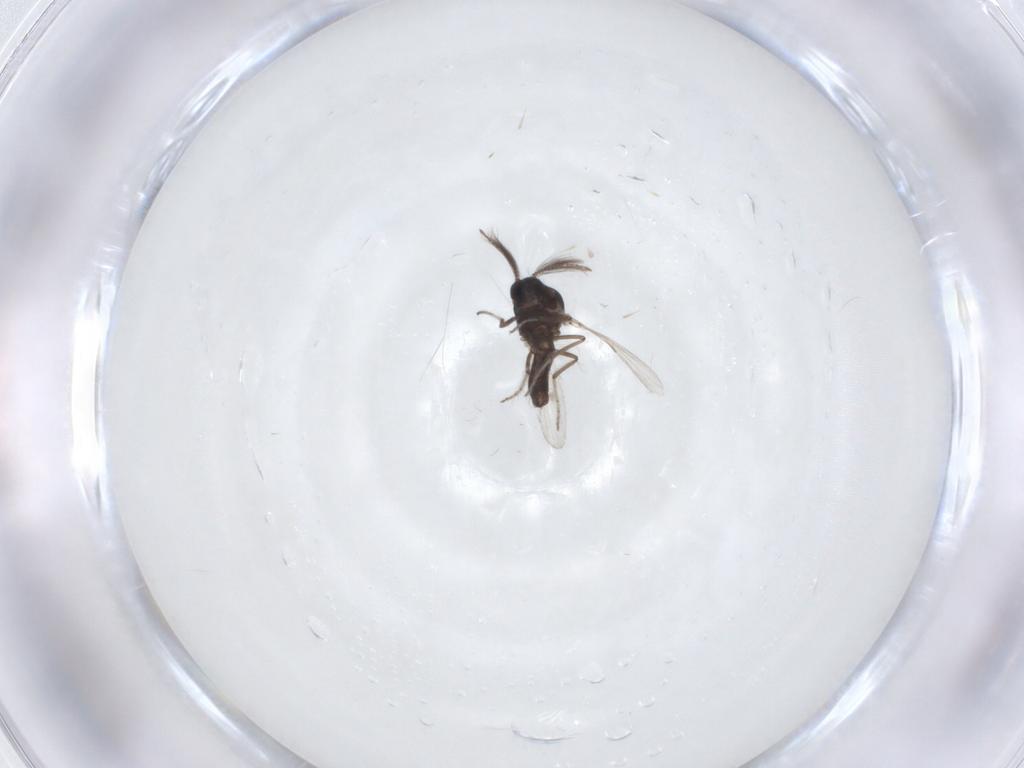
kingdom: Animalia
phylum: Arthropoda
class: Insecta
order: Diptera
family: Ceratopogonidae
